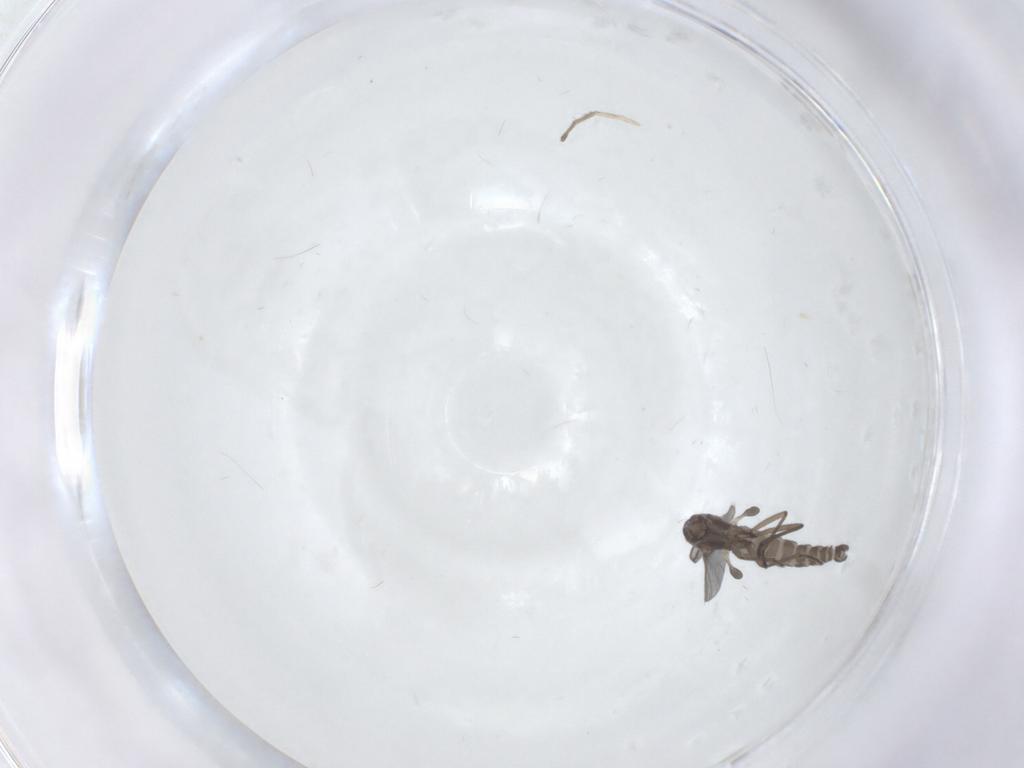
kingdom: Animalia
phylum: Arthropoda
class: Insecta
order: Diptera
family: Sciaridae
